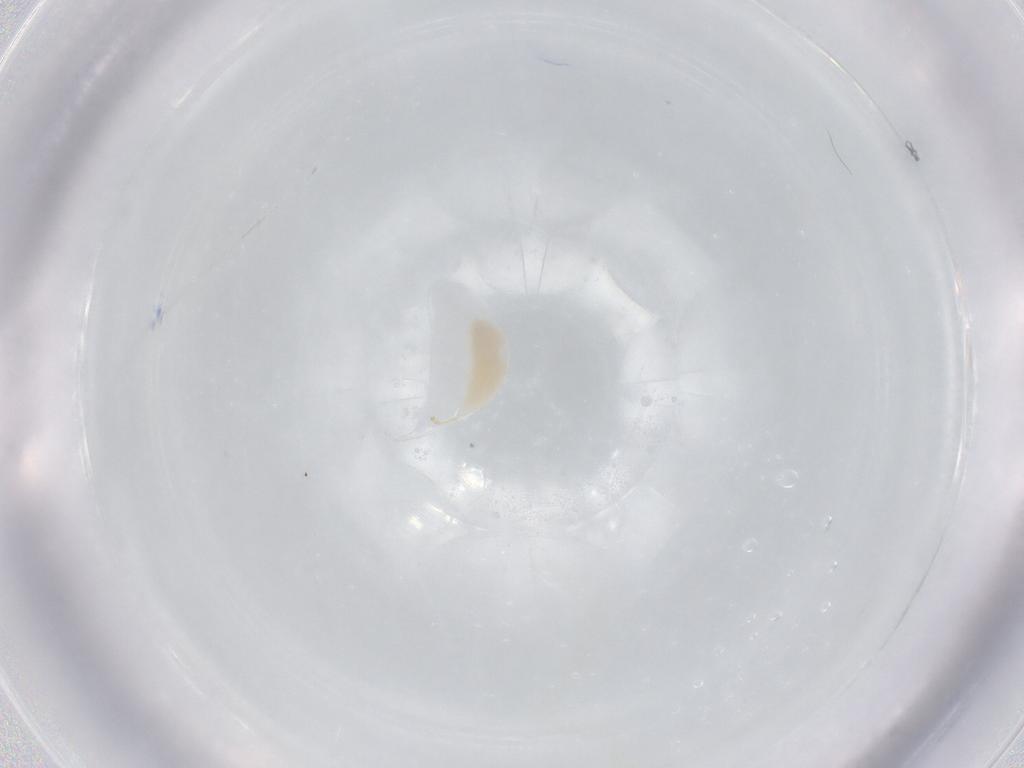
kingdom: Animalia
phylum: Arthropoda
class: Insecta
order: Hymenoptera
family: Ichneumonidae
